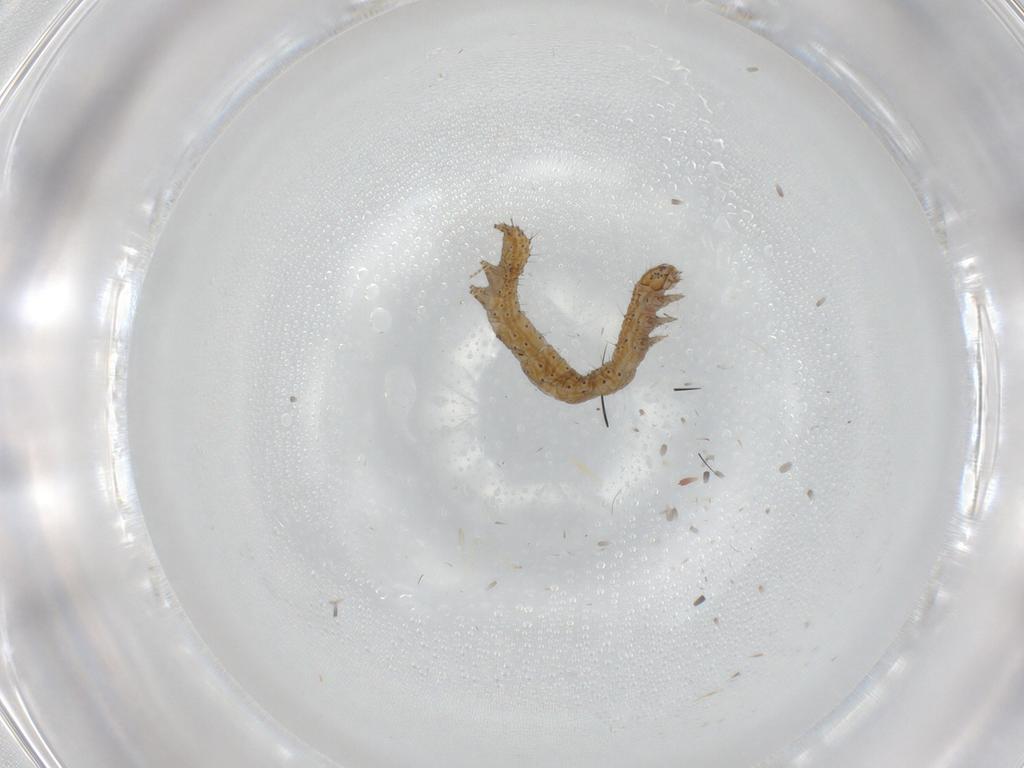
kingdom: Animalia
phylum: Arthropoda
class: Insecta
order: Lepidoptera
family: Erebidae
